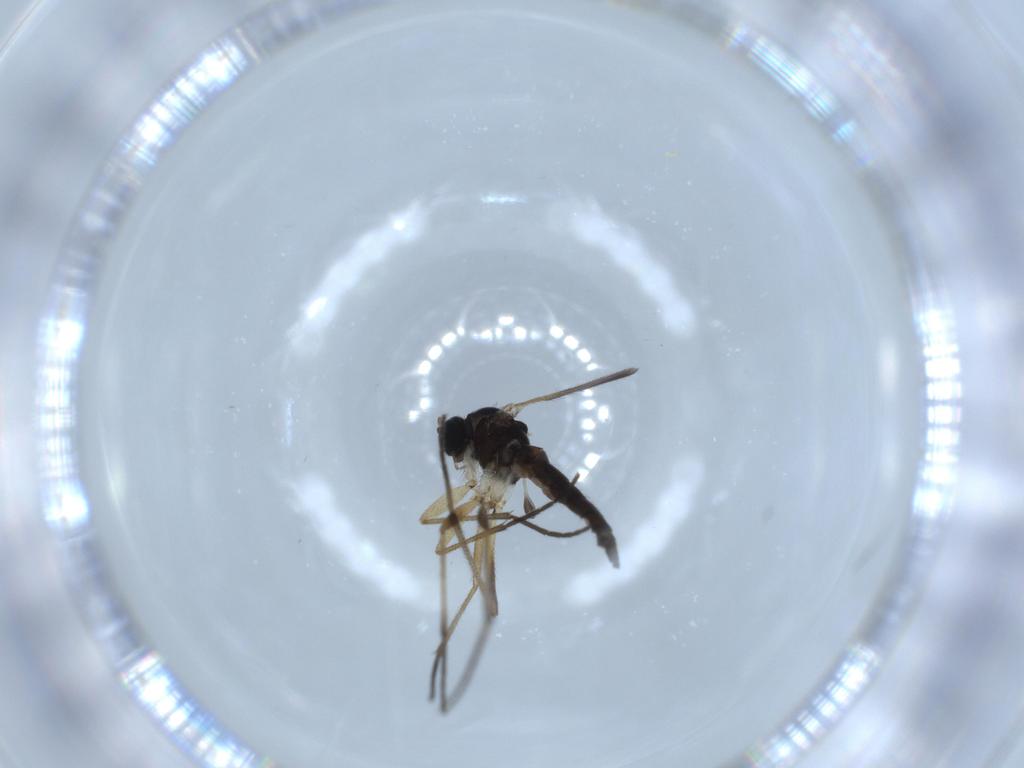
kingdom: Animalia
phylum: Arthropoda
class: Insecta
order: Diptera
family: Sciaridae
